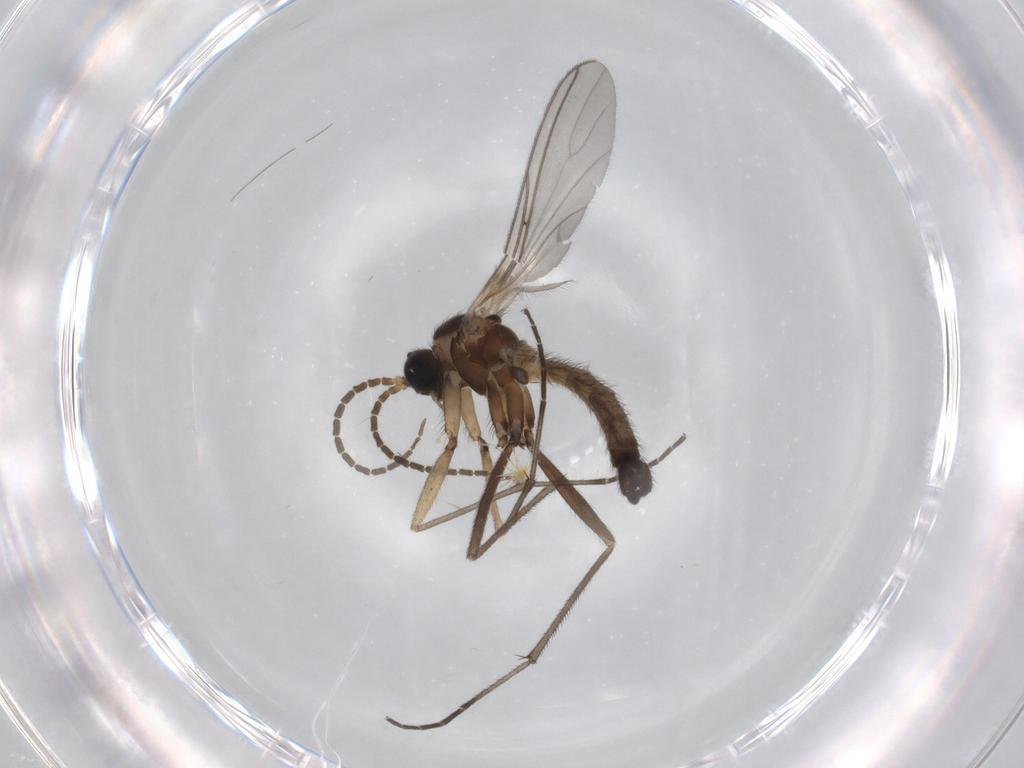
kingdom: Animalia
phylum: Arthropoda
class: Insecta
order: Diptera
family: Sciaridae
